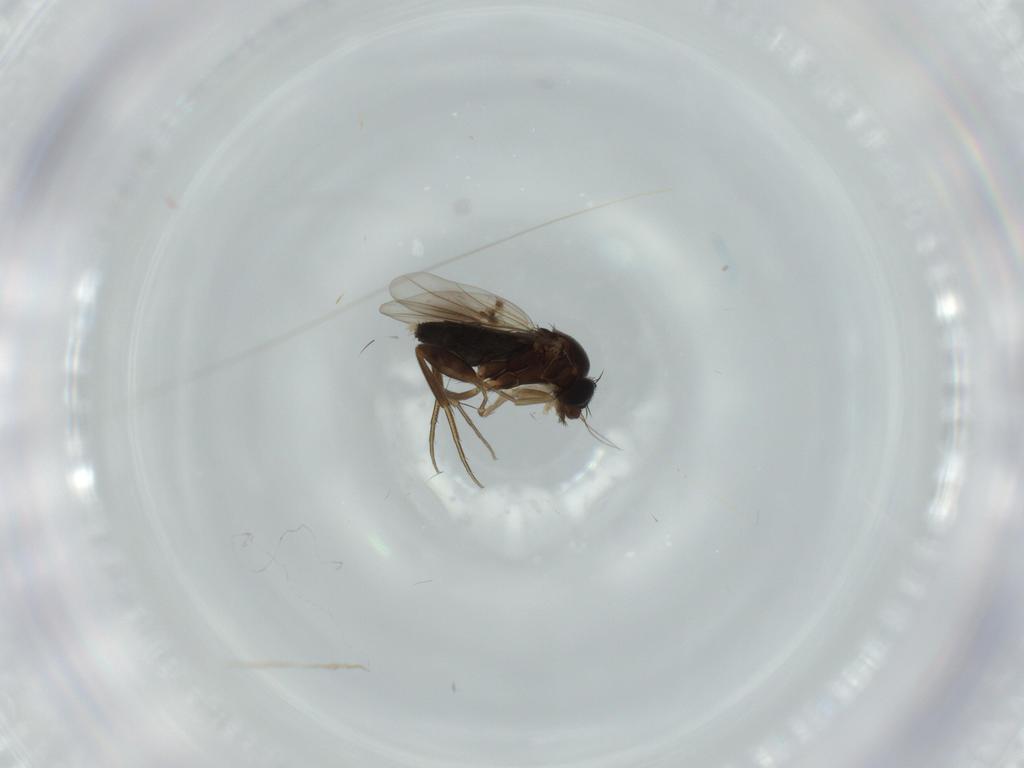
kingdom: Animalia
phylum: Arthropoda
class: Insecta
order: Diptera
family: Phoridae
